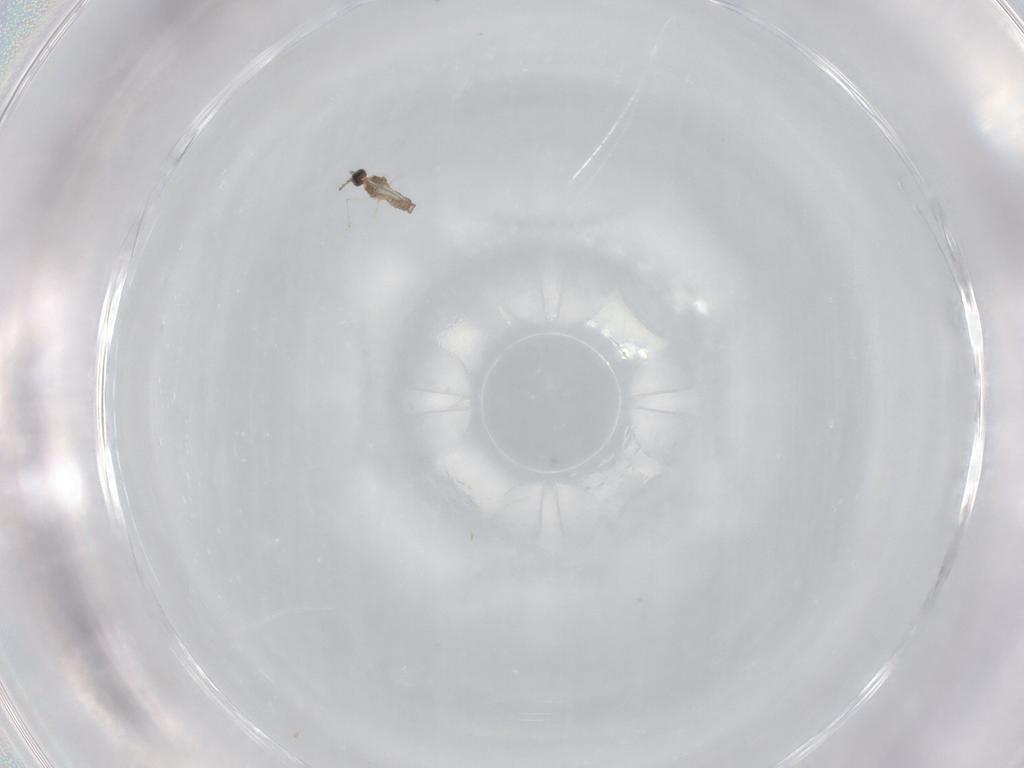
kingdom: Animalia
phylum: Arthropoda
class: Insecta
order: Diptera
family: Cecidomyiidae
